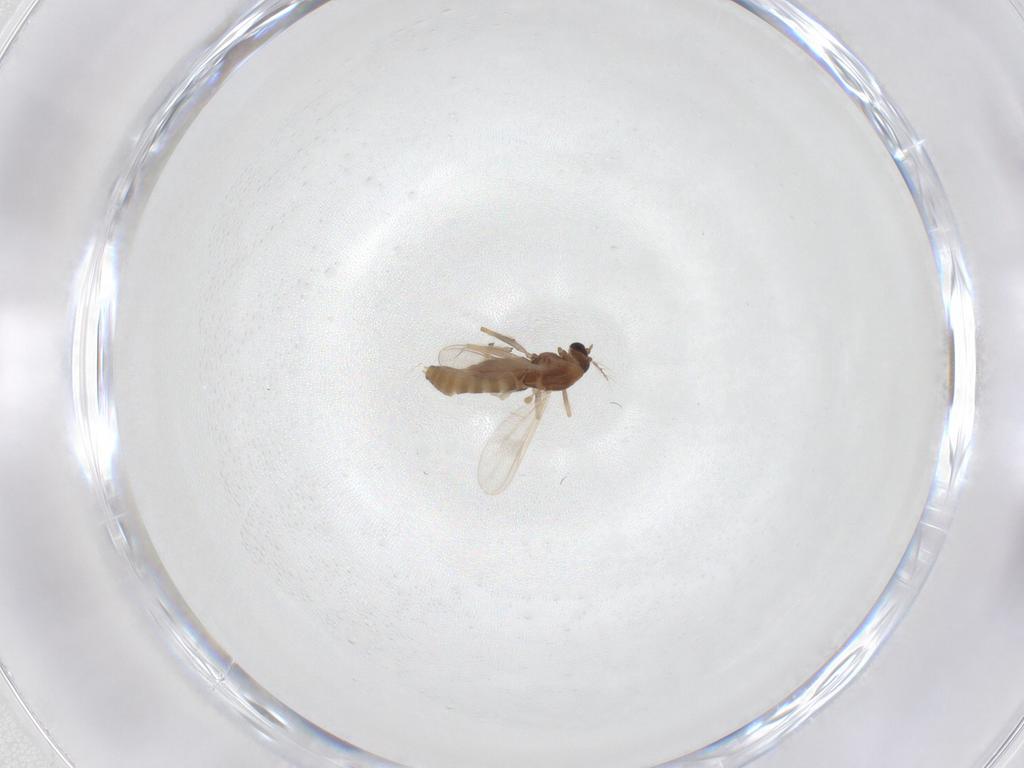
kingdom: Animalia
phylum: Arthropoda
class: Insecta
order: Diptera
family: Chironomidae
